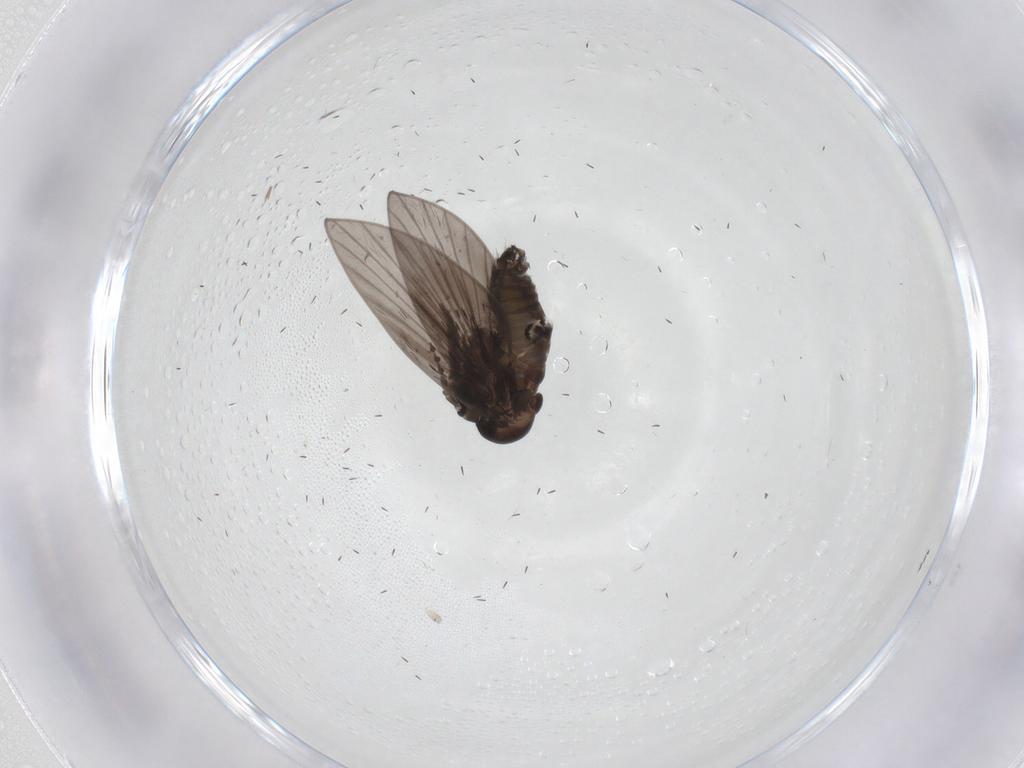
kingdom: Animalia
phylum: Arthropoda
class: Insecta
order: Diptera
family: Psychodidae
